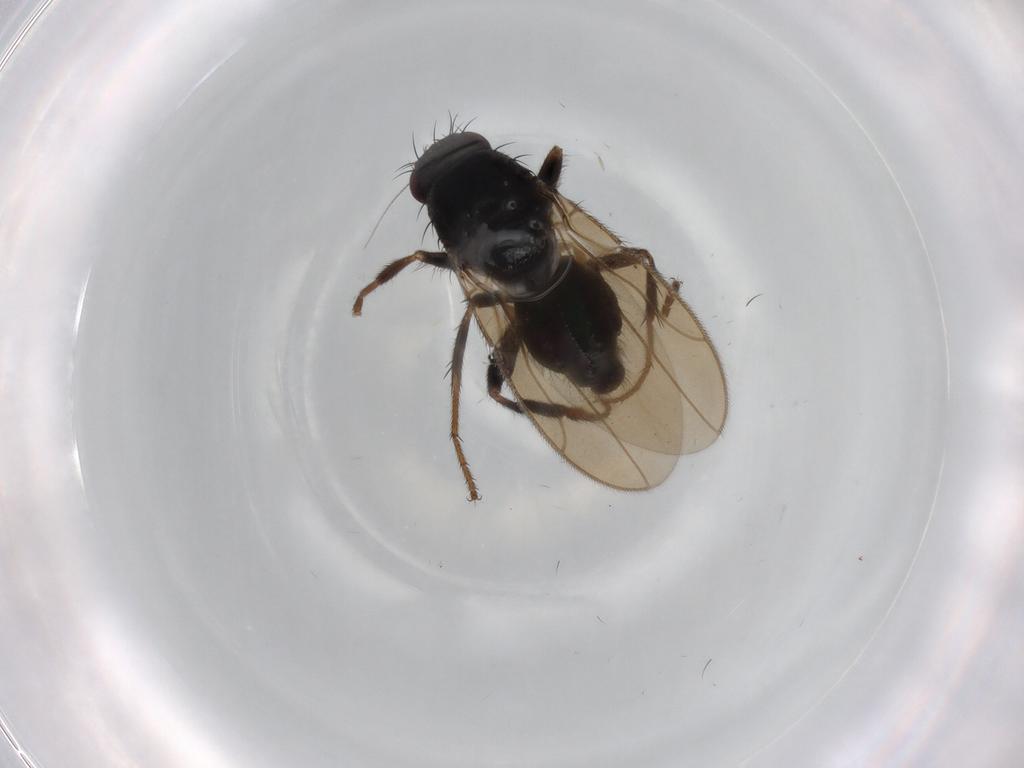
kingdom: Animalia
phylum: Arthropoda
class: Insecta
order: Diptera
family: Sphaeroceridae
